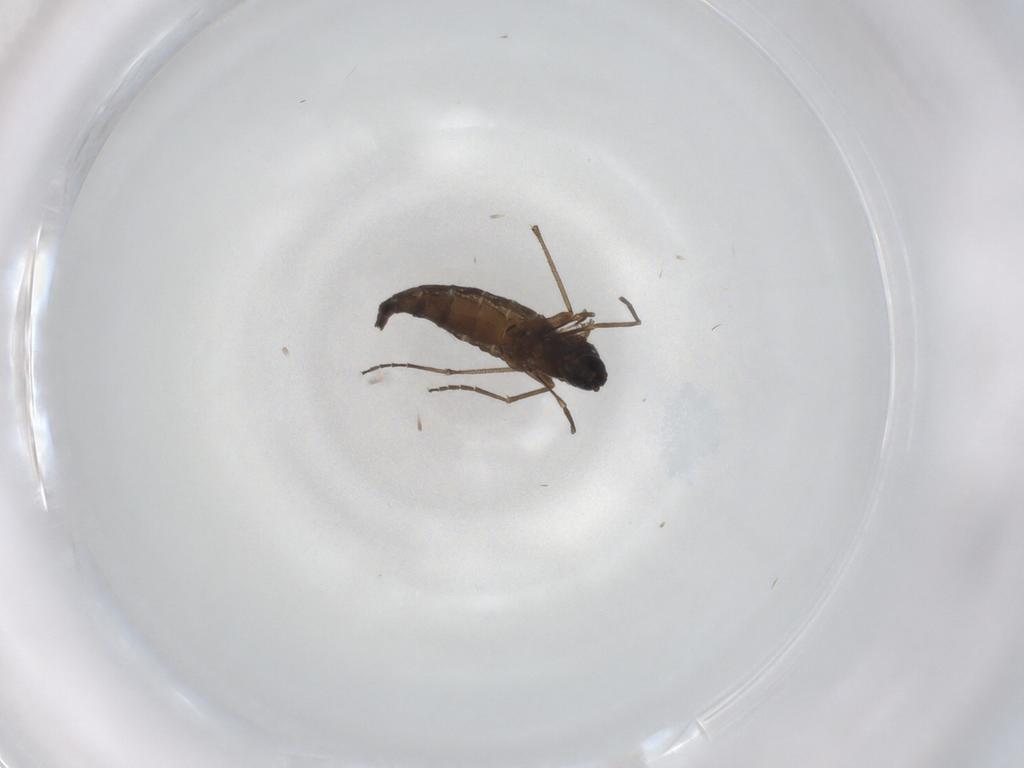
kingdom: Animalia
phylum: Arthropoda
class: Insecta
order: Diptera
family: Sciaridae
